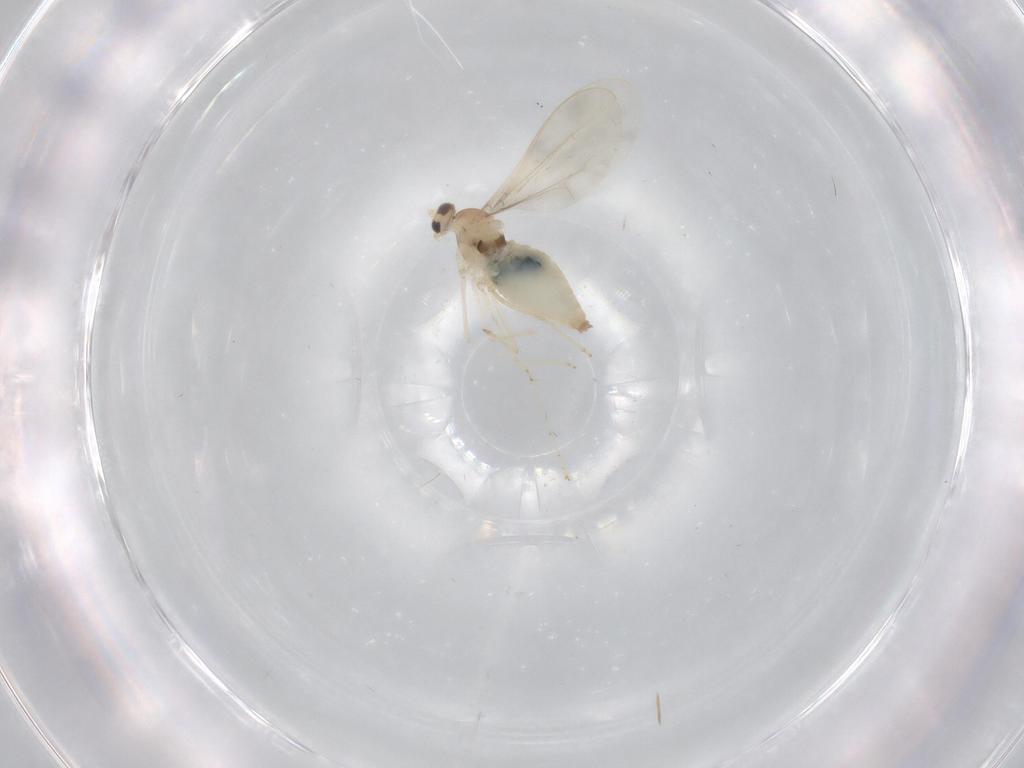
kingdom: Animalia
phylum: Arthropoda
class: Insecta
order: Diptera
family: Cecidomyiidae
